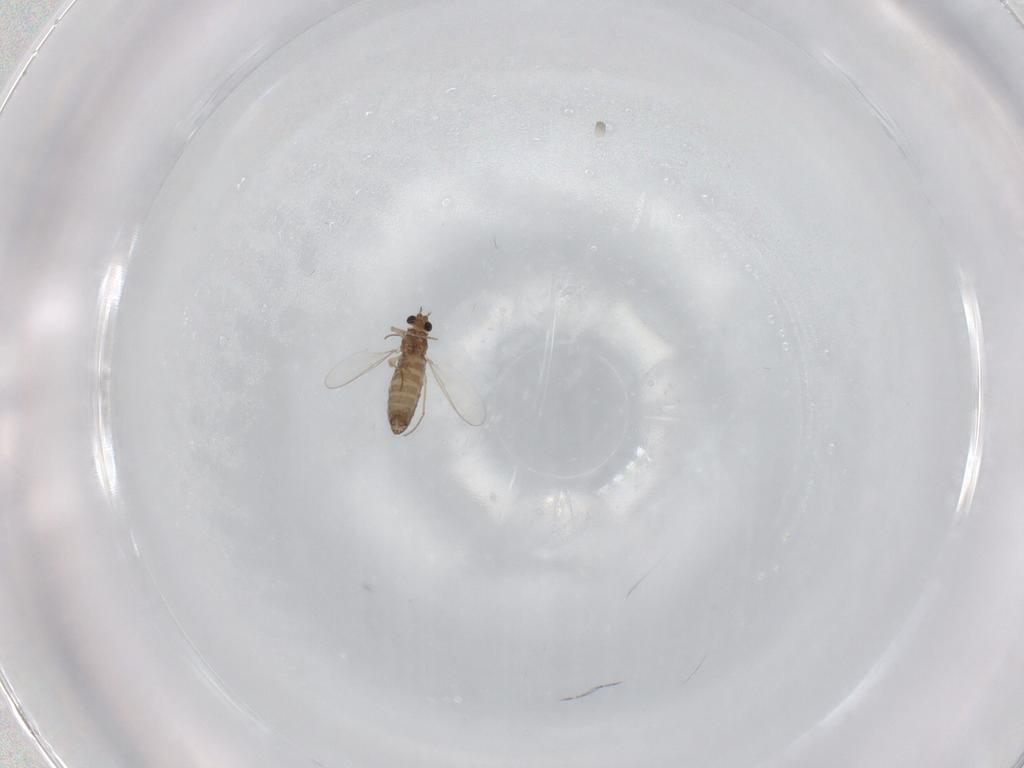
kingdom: Animalia
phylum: Arthropoda
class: Insecta
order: Diptera
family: Chironomidae
